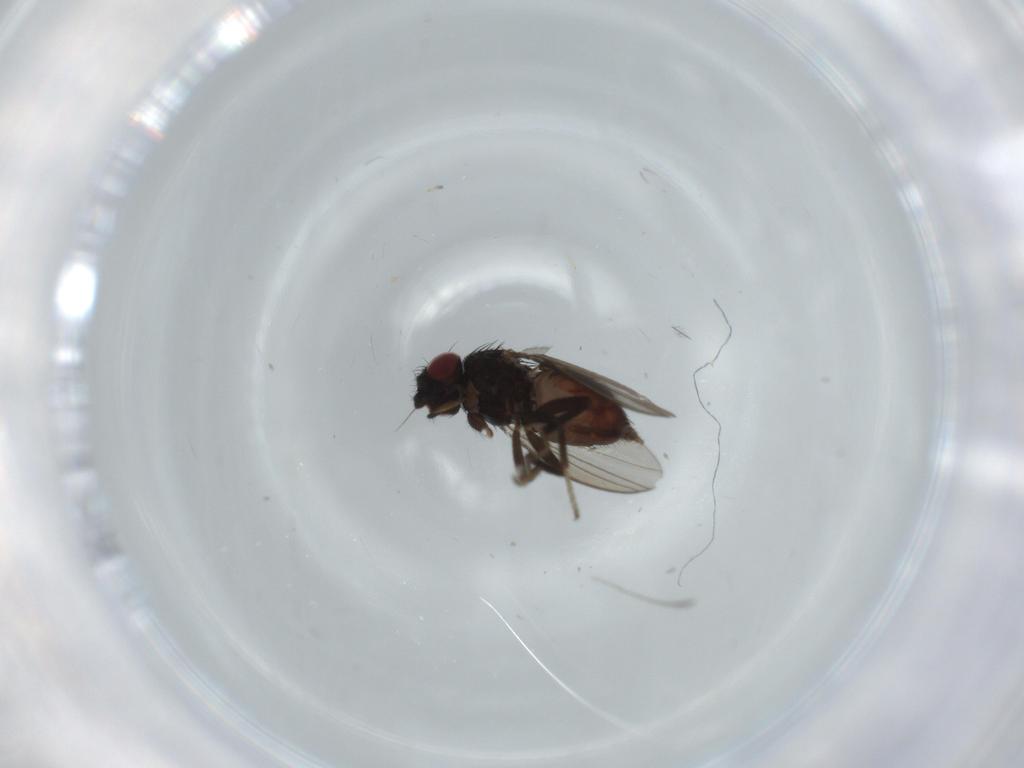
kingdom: Animalia
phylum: Arthropoda
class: Insecta
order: Diptera
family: Milichiidae
